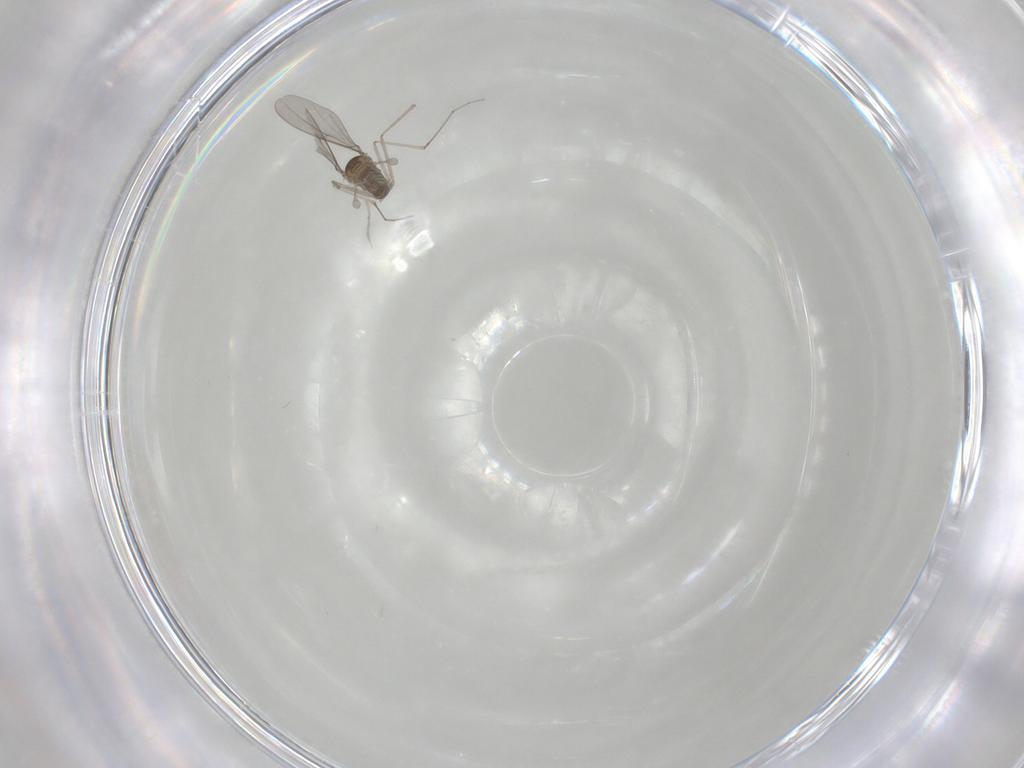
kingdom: Animalia
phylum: Arthropoda
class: Insecta
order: Diptera
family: Cecidomyiidae
